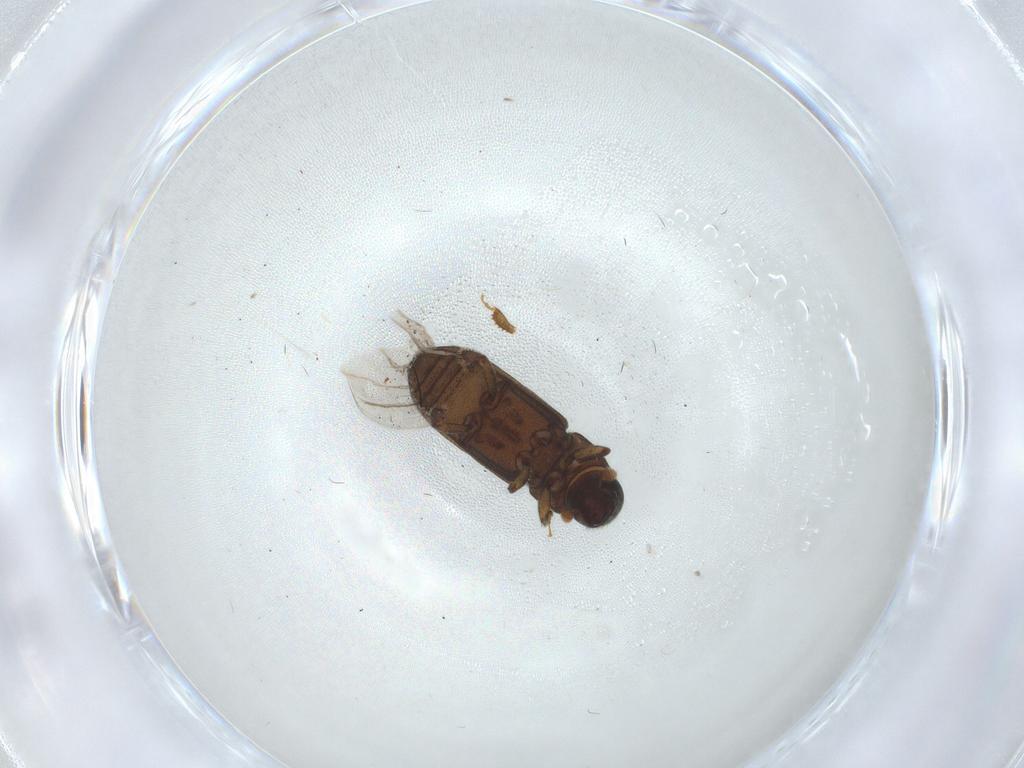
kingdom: Animalia
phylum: Arthropoda
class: Insecta
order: Coleoptera
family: Curculionidae
